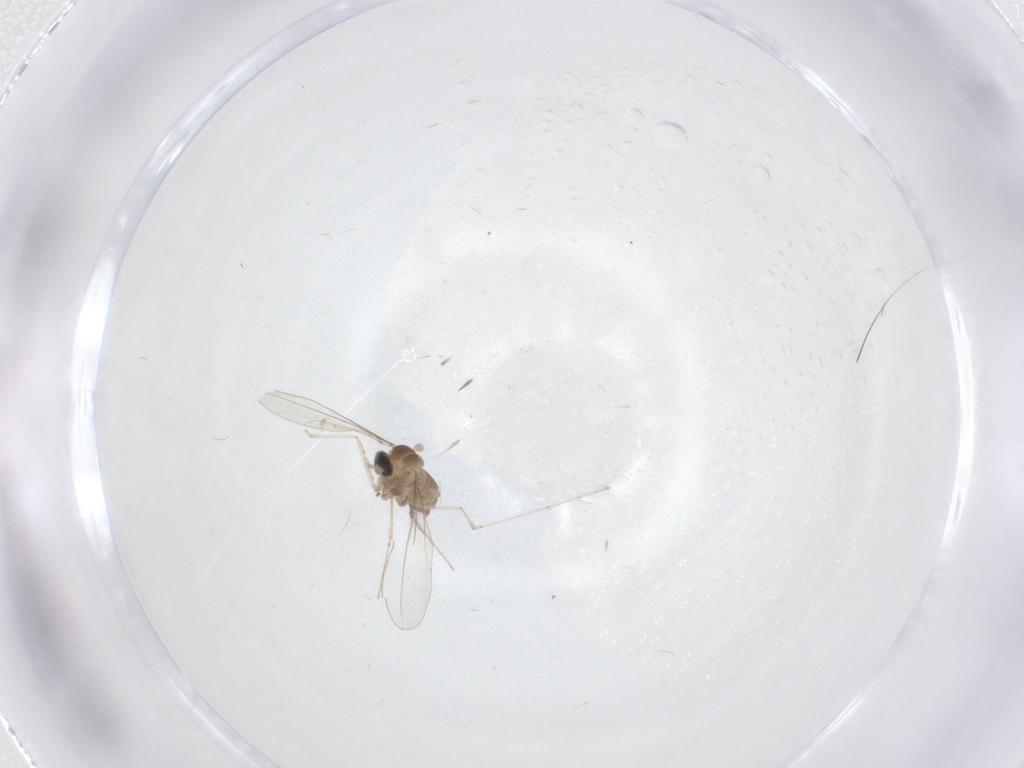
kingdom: Animalia
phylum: Arthropoda
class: Insecta
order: Diptera
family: Cecidomyiidae
